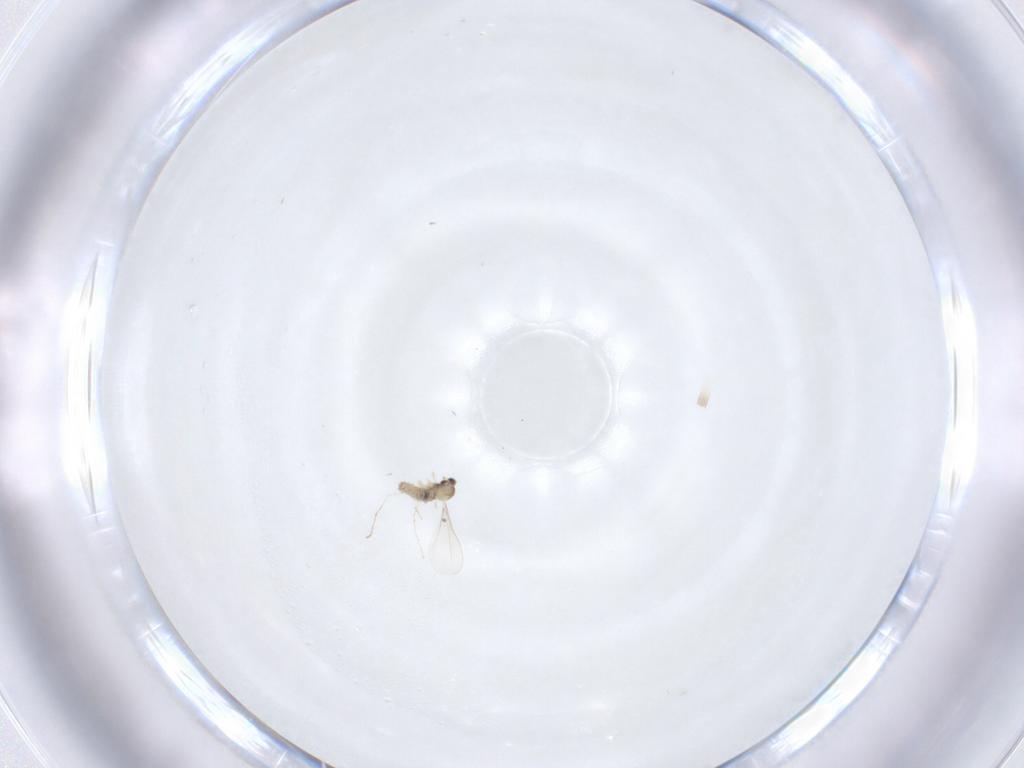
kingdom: Animalia
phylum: Arthropoda
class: Insecta
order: Diptera
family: Cecidomyiidae
